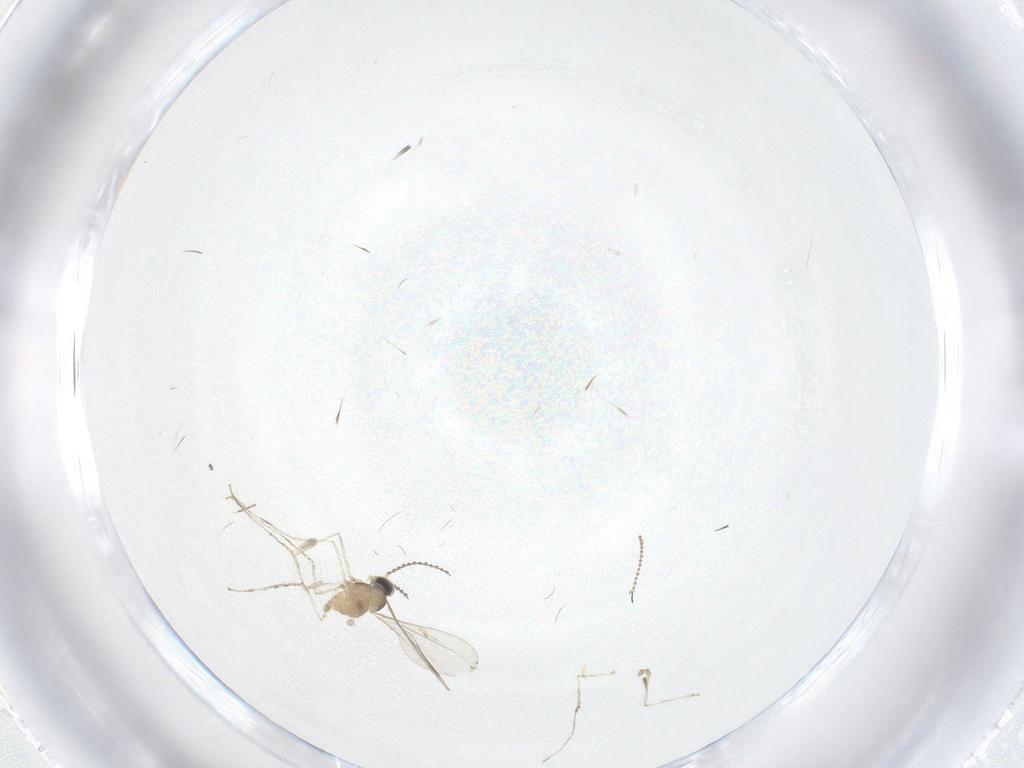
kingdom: Animalia
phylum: Arthropoda
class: Insecta
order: Diptera
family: Cecidomyiidae
